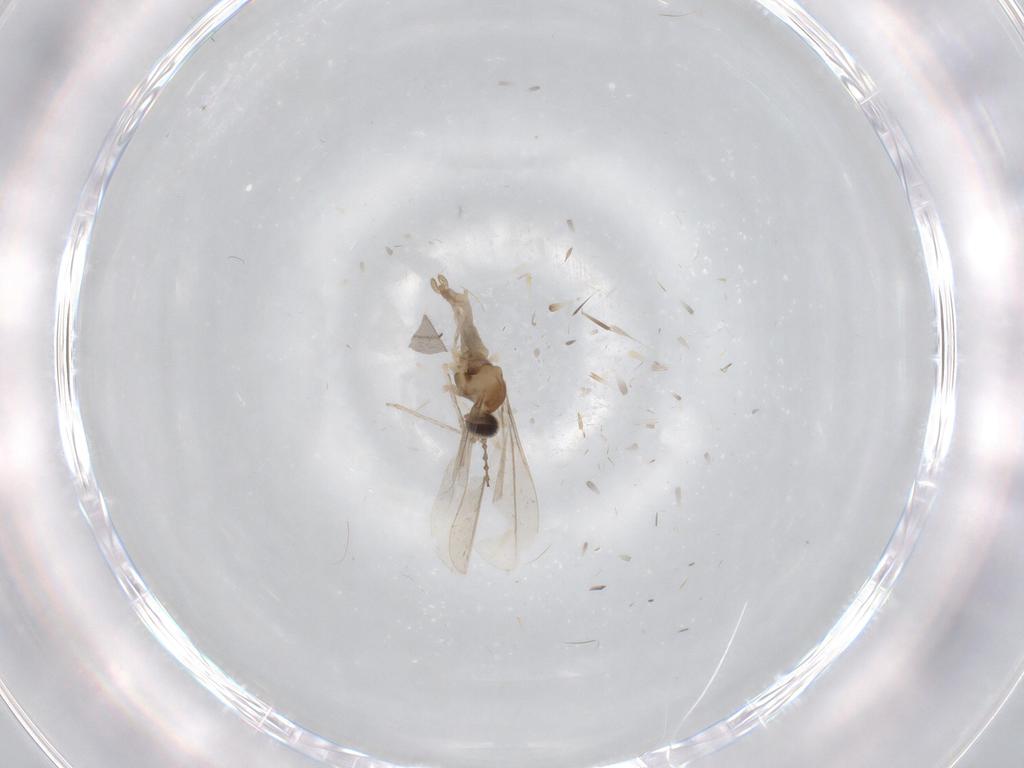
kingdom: Animalia
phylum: Arthropoda
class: Insecta
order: Diptera
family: Cecidomyiidae
